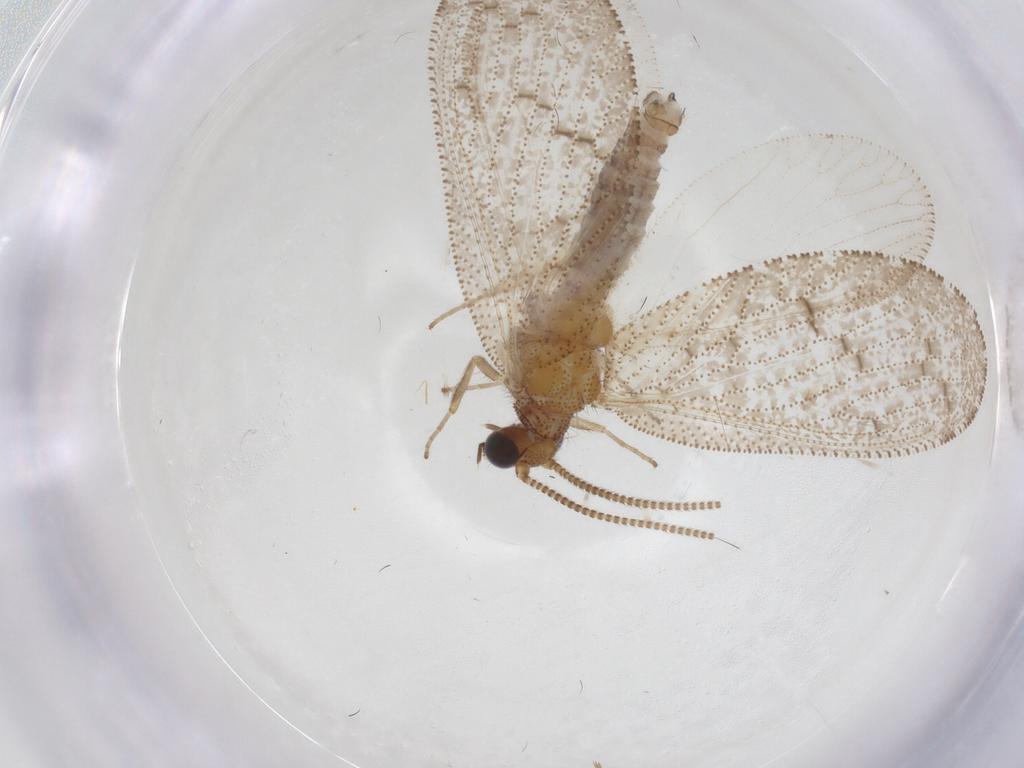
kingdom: Animalia
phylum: Arthropoda
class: Insecta
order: Neuroptera
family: Hemerobiidae
